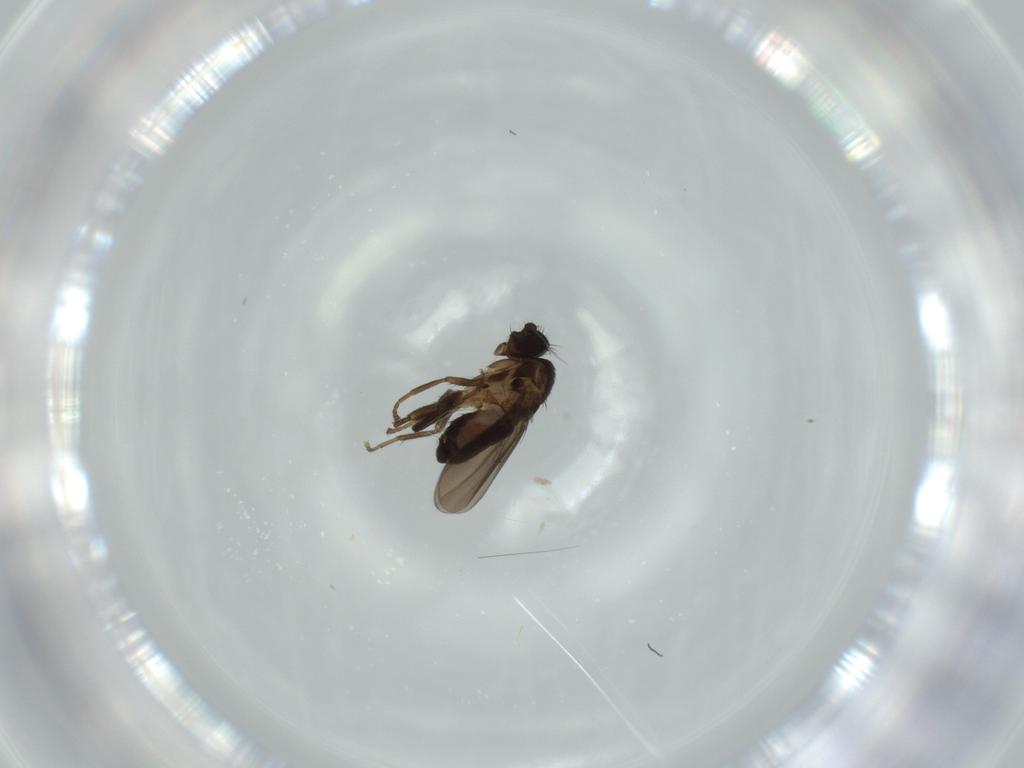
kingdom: Animalia
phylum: Arthropoda
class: Insecta
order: Diptera
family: Sphaeroceridae
